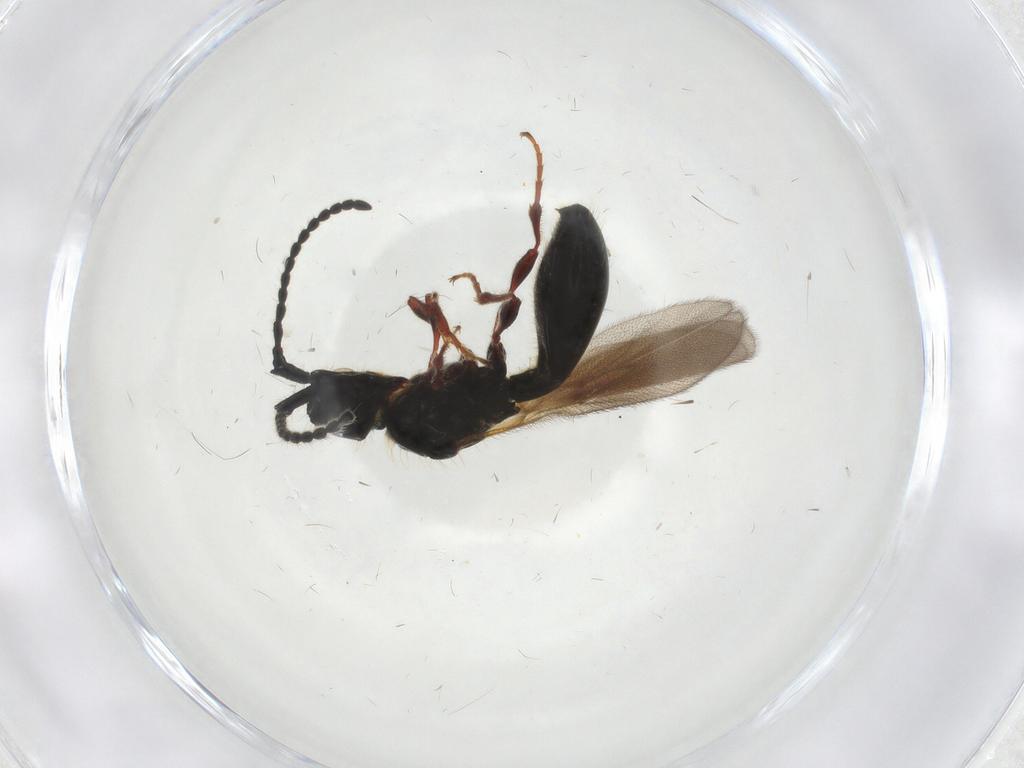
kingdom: Animalia
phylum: Arthropoda
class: Insecta
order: Hymenoptera
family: Diapriidae
